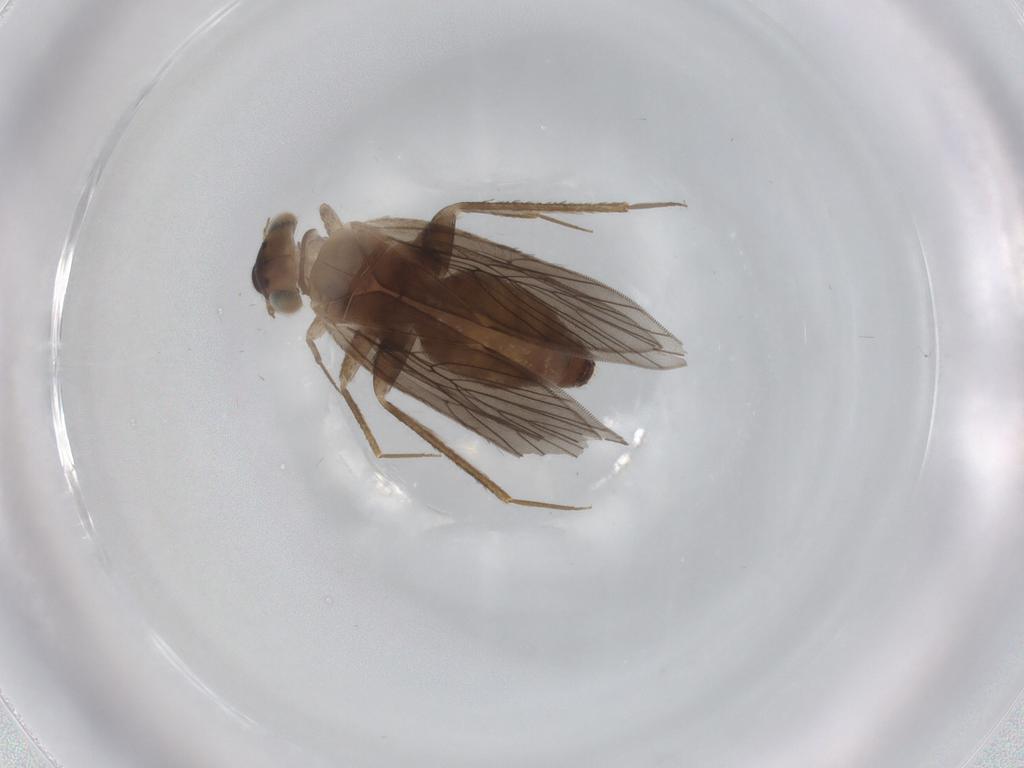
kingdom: Animalia
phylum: Arthropoda
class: Insecta
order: Psocodea
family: Lepidopsocidae
